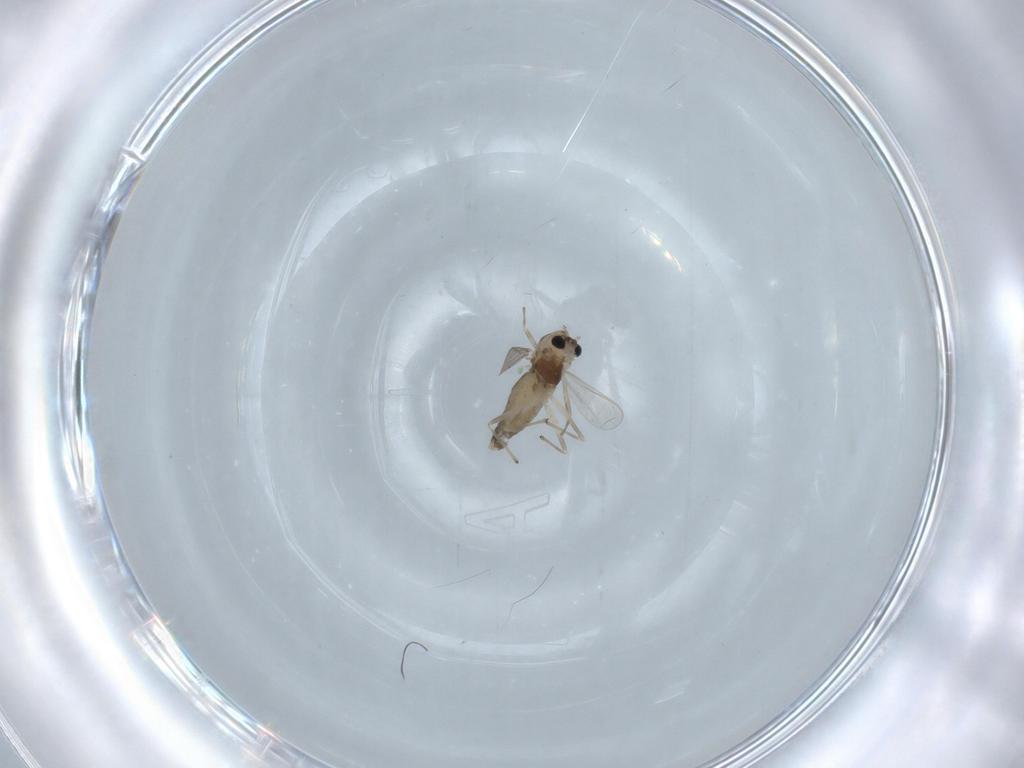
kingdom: Animalia
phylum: Arthropoda
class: Insecta
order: Diptera
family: Chironomidae
